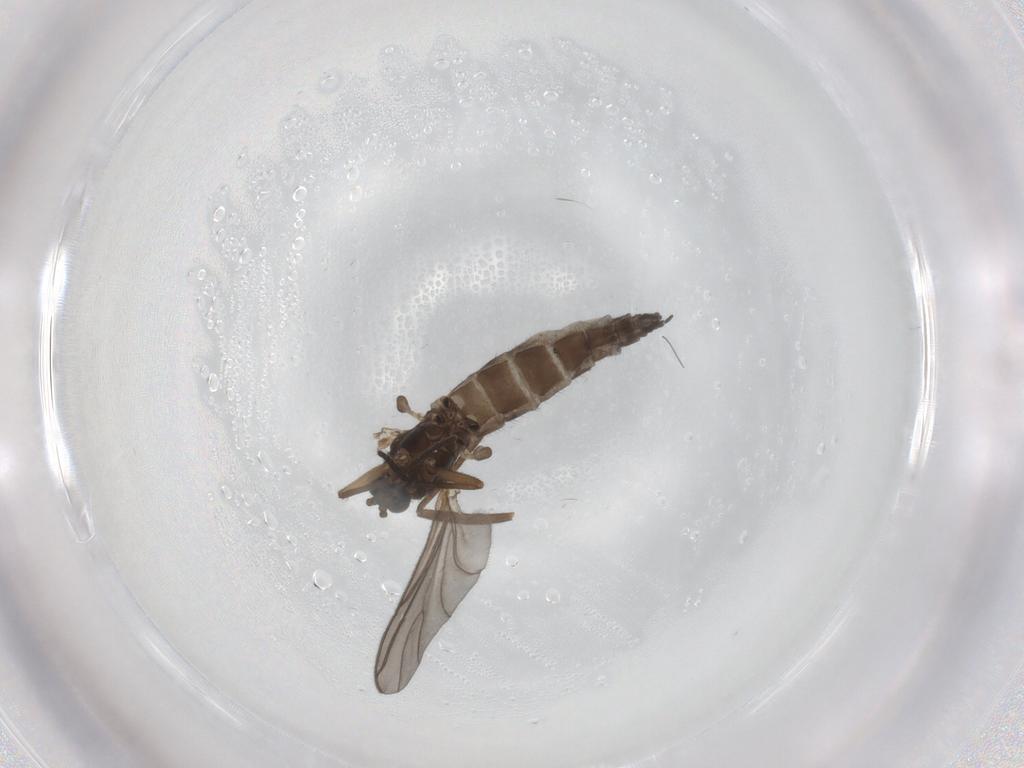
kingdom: Animalia
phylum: Arthropoda
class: Insecta
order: Diptera
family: Sciaridae
